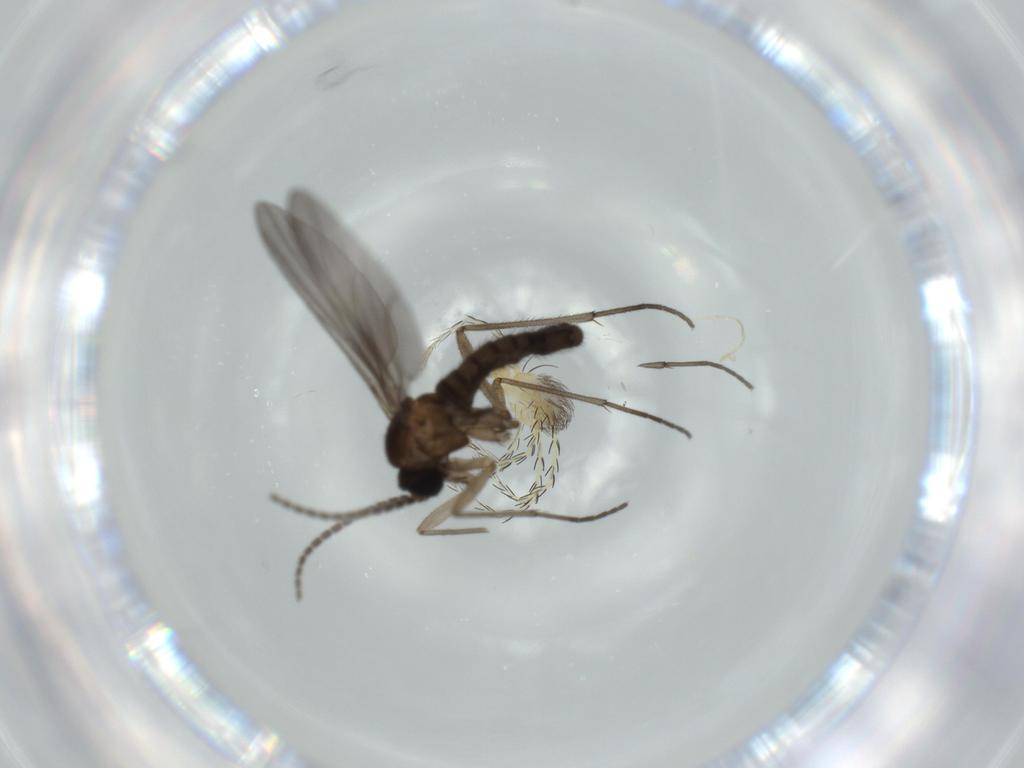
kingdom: Animalia
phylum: Arthropoda
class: Insecta
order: Diptera
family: Sciaridae
